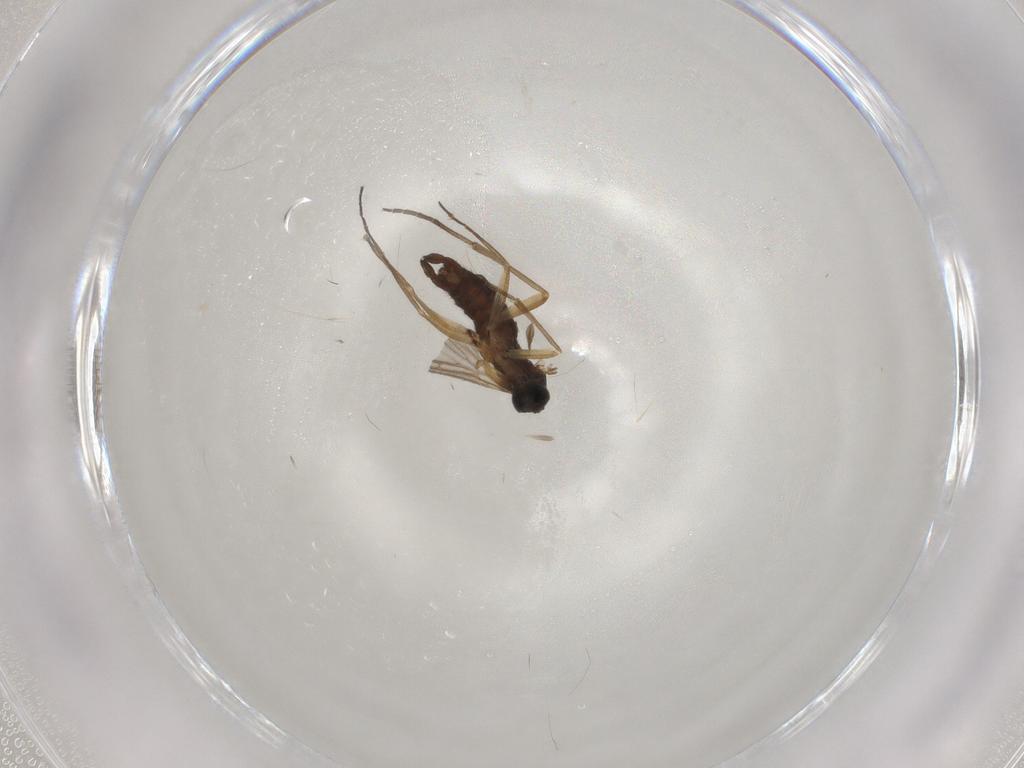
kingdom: Animalia
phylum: Arthropoda
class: Insecta
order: Diptera
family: Sciaridae
